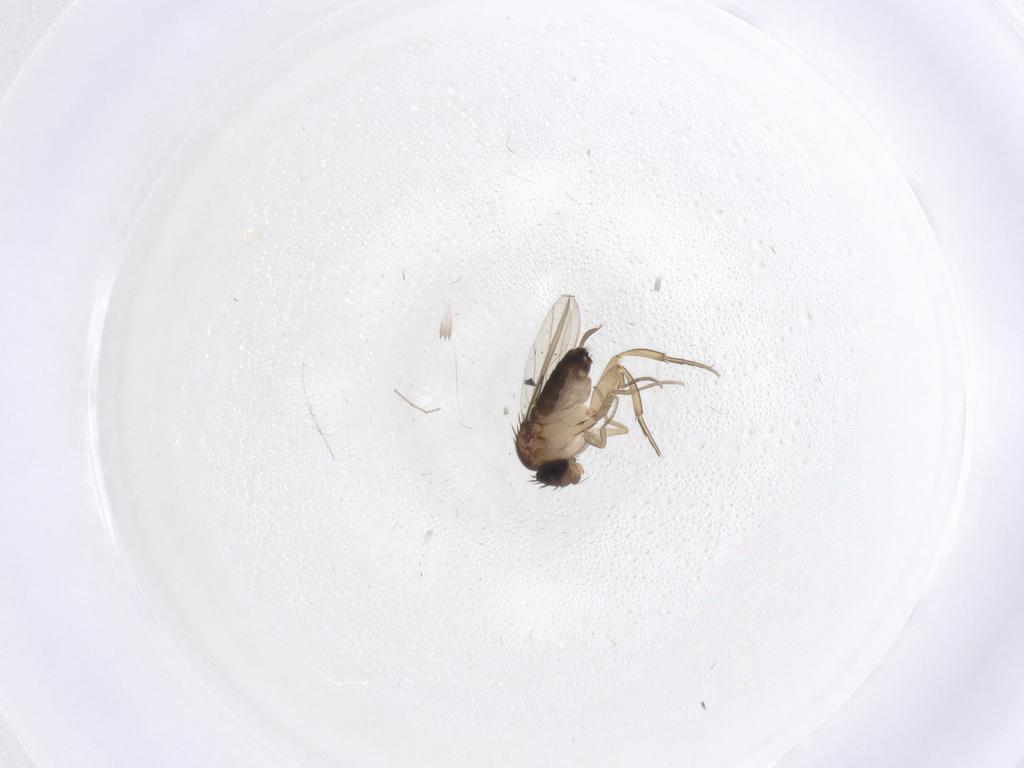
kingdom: Animalia
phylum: Arthropoda
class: Insecta
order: Diptera
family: Phoridae
